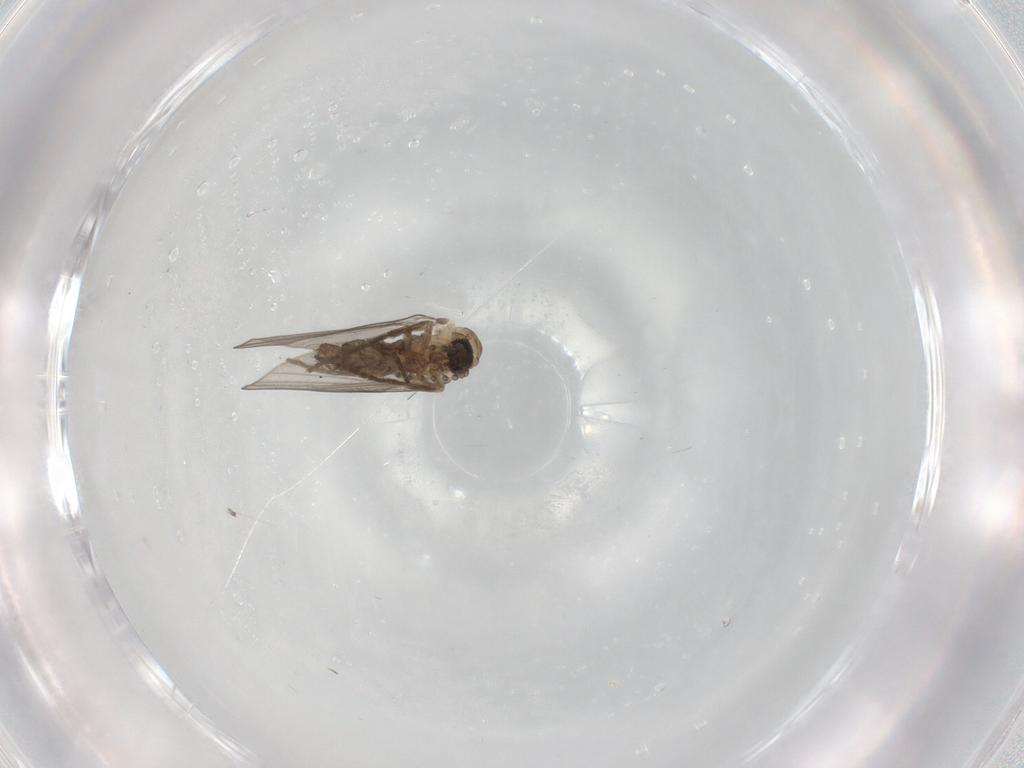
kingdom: Animalia
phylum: Arthropoda
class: Insecta
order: Diptera
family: Psychodidae
